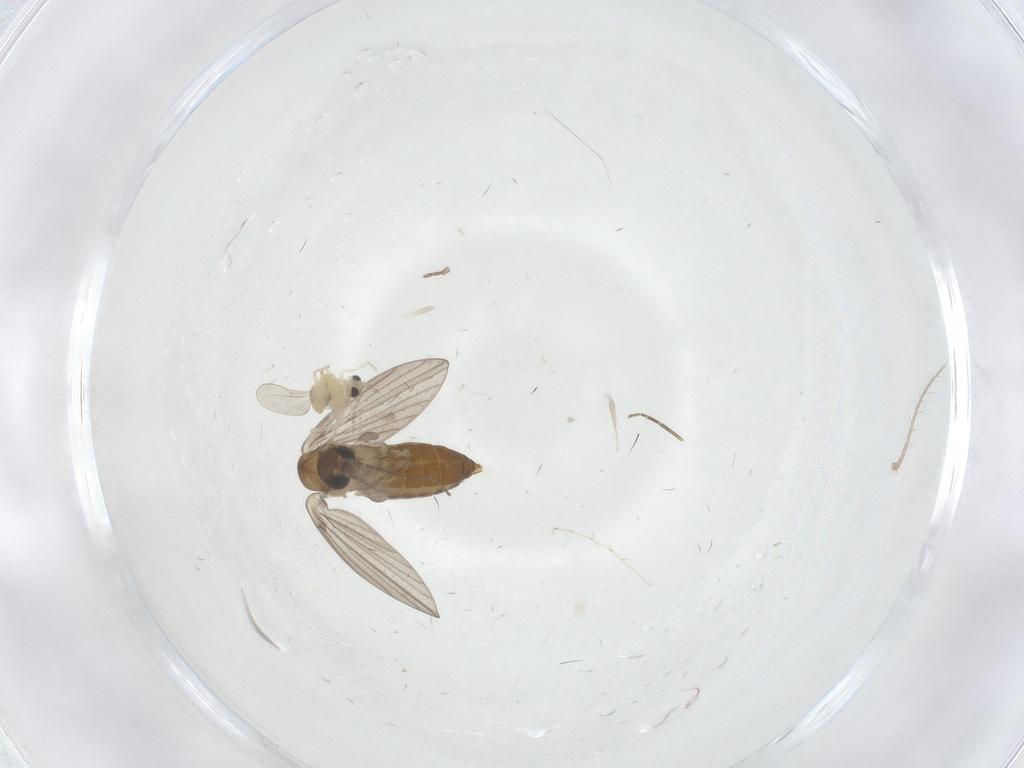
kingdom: Animalia
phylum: Arthropoda
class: Insecta
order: Diptera
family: Cecidomyiidae
